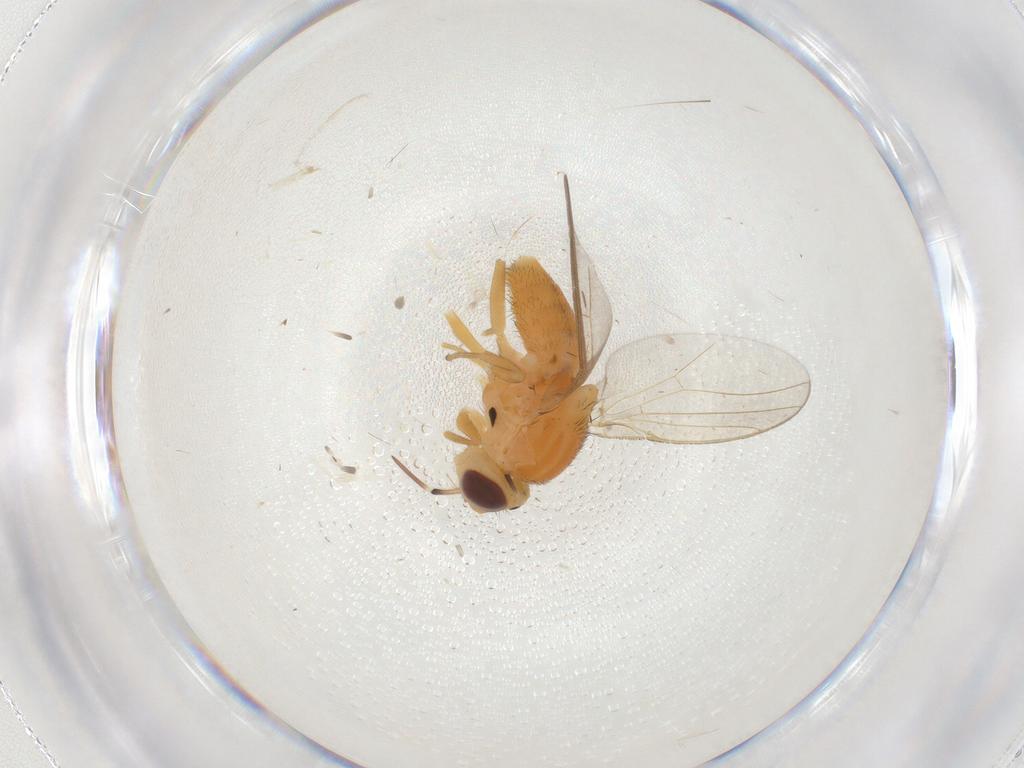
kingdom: Animalia
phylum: Arthropoda
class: Insecta
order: Diptera
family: Chloropidae
